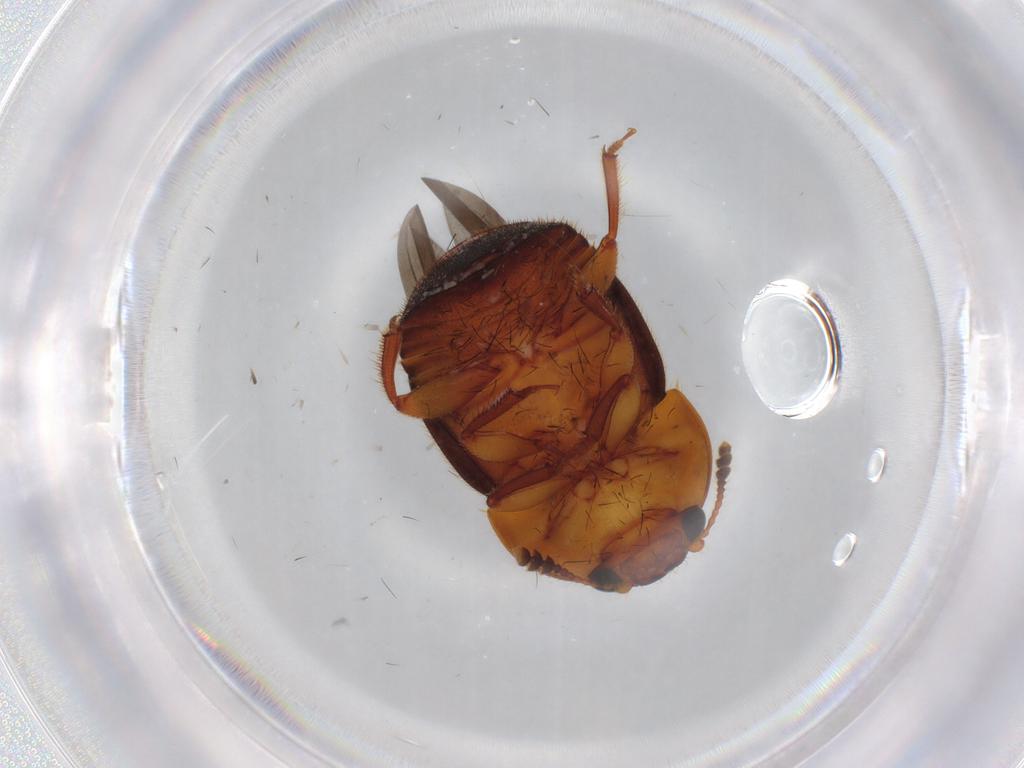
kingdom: Animalia
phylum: Arthropoda
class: Insecta
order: Coleoptera
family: Nitidulidae
